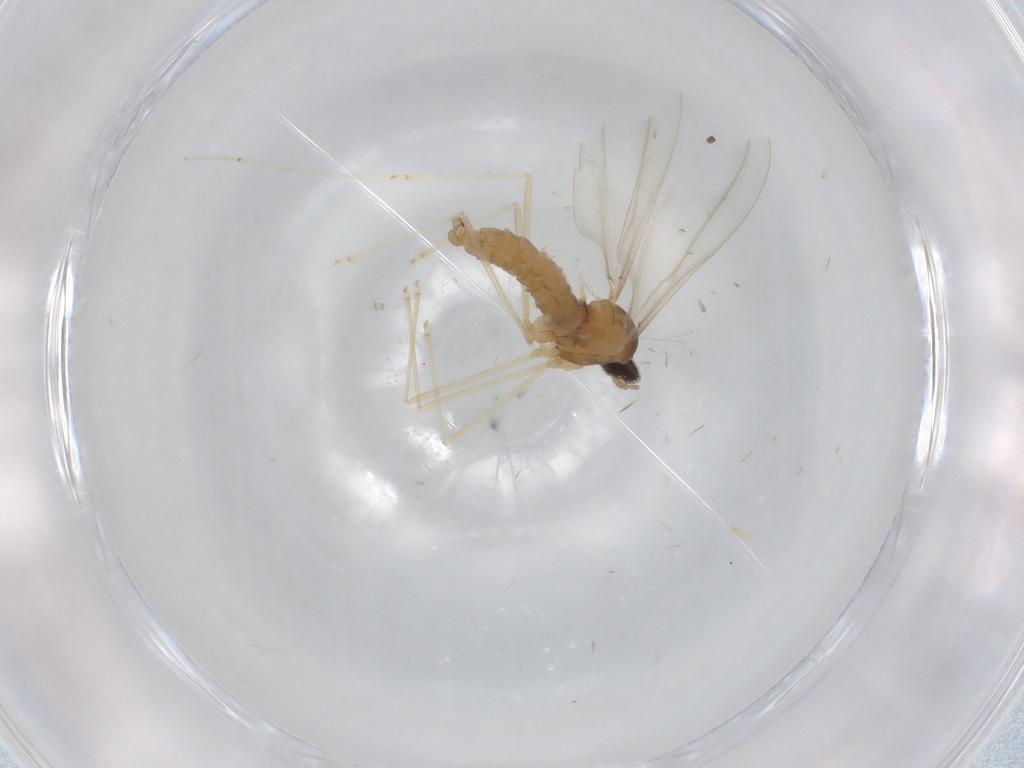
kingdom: Animalia
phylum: Arthropoda
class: Insecta
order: Diptera
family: Cecidomyiidae
